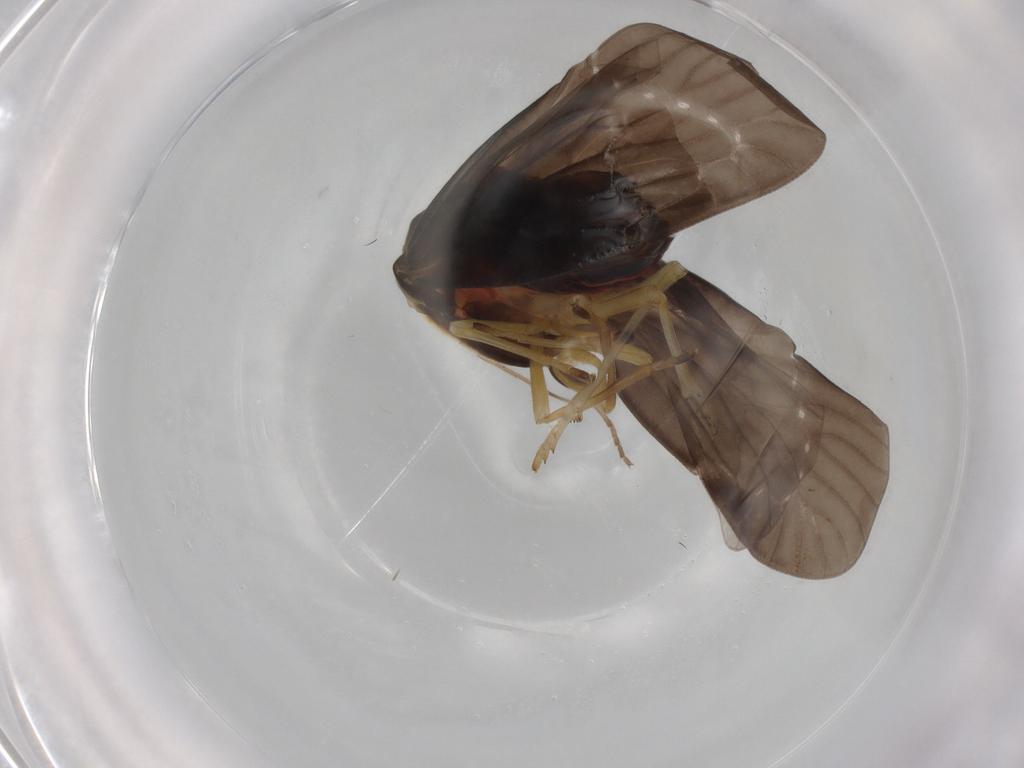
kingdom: Animalia
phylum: Arthropoda
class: Insecta
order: Hemiptera
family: Derbidae
